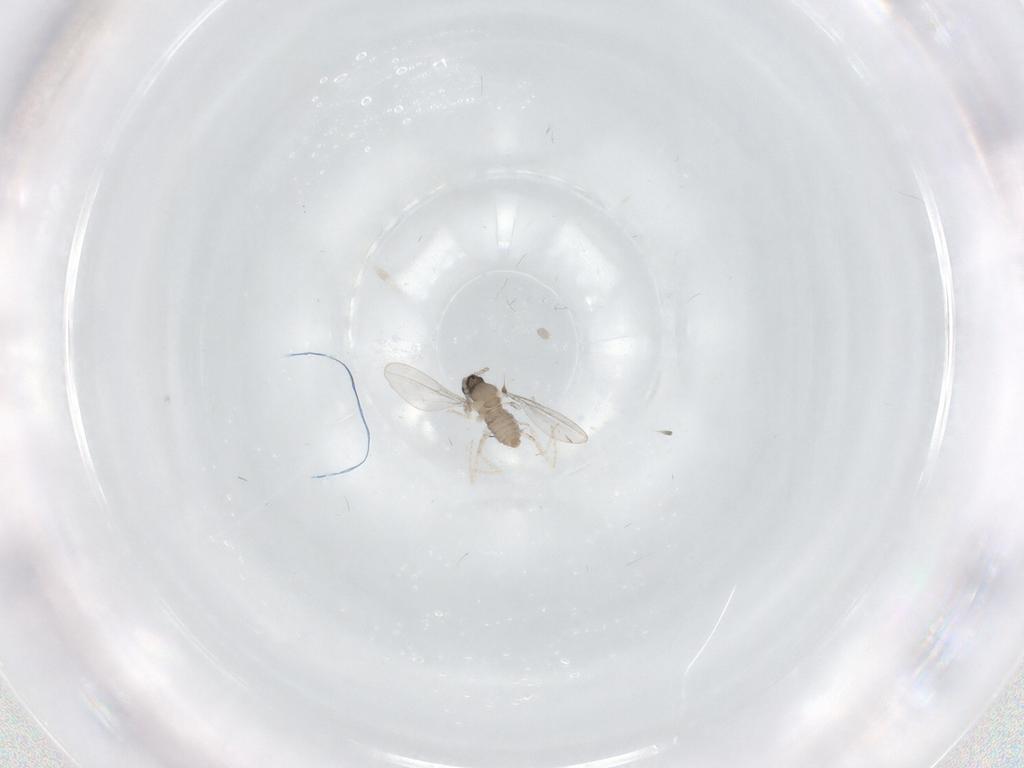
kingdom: Animalia
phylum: Arthropoda
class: Insecta
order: Diptera
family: Cecidomyiidae
